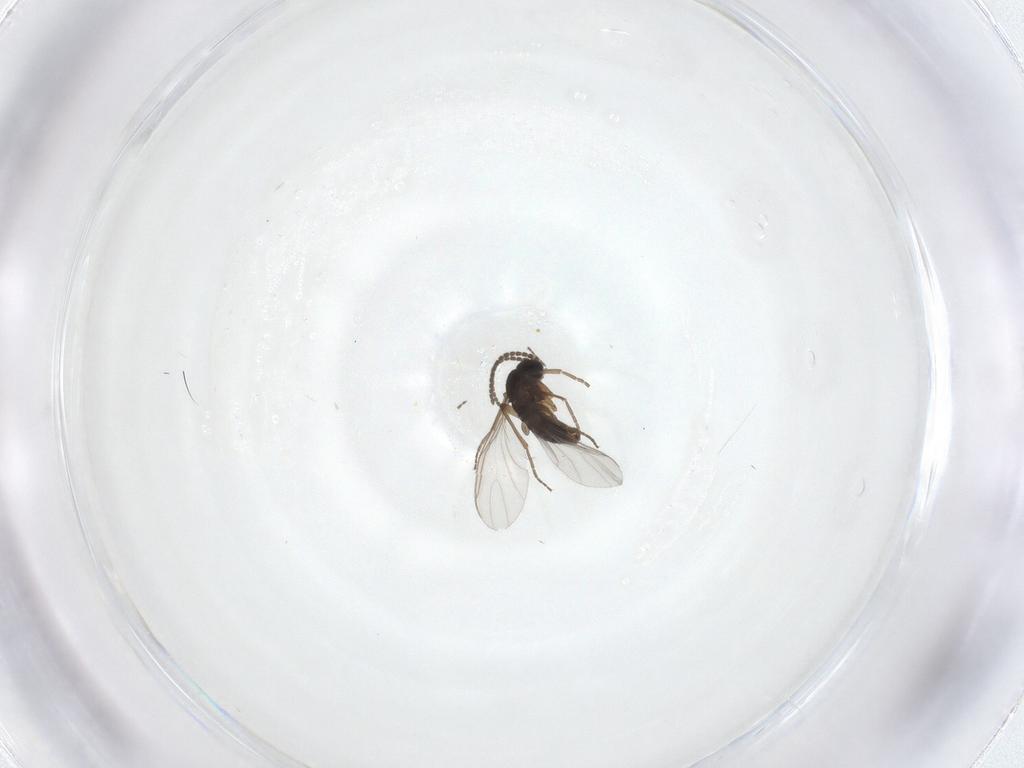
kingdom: Animalia
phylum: Arthropoda
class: Insecta
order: Diptera
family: Sciaridae
